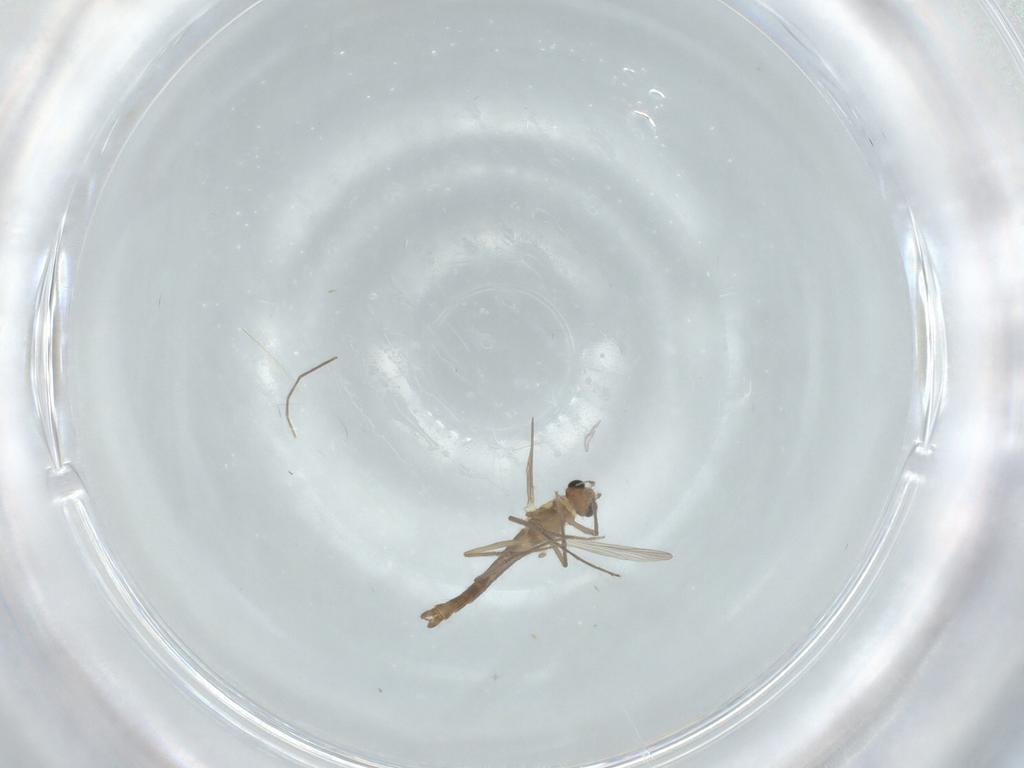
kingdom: Animalia
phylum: Arthropoda
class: Insecta
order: Diptera
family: Chironomidae
